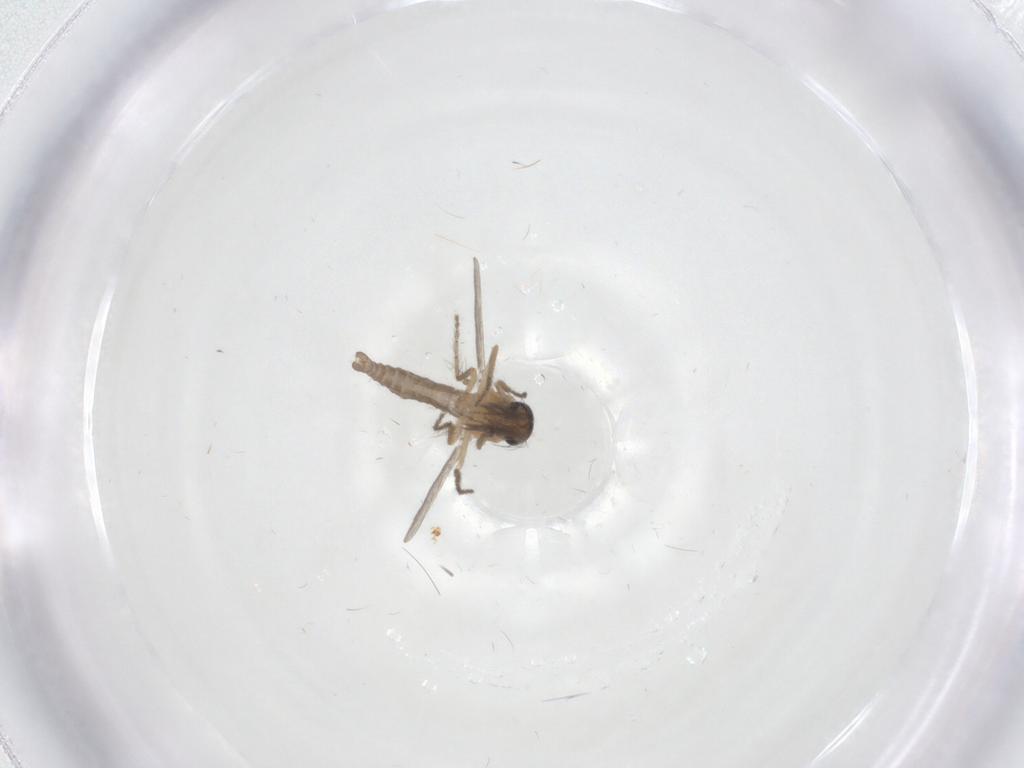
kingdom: Animalia
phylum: Arthropoda
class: Insecta
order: Diptera
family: Ceratopogonidae
